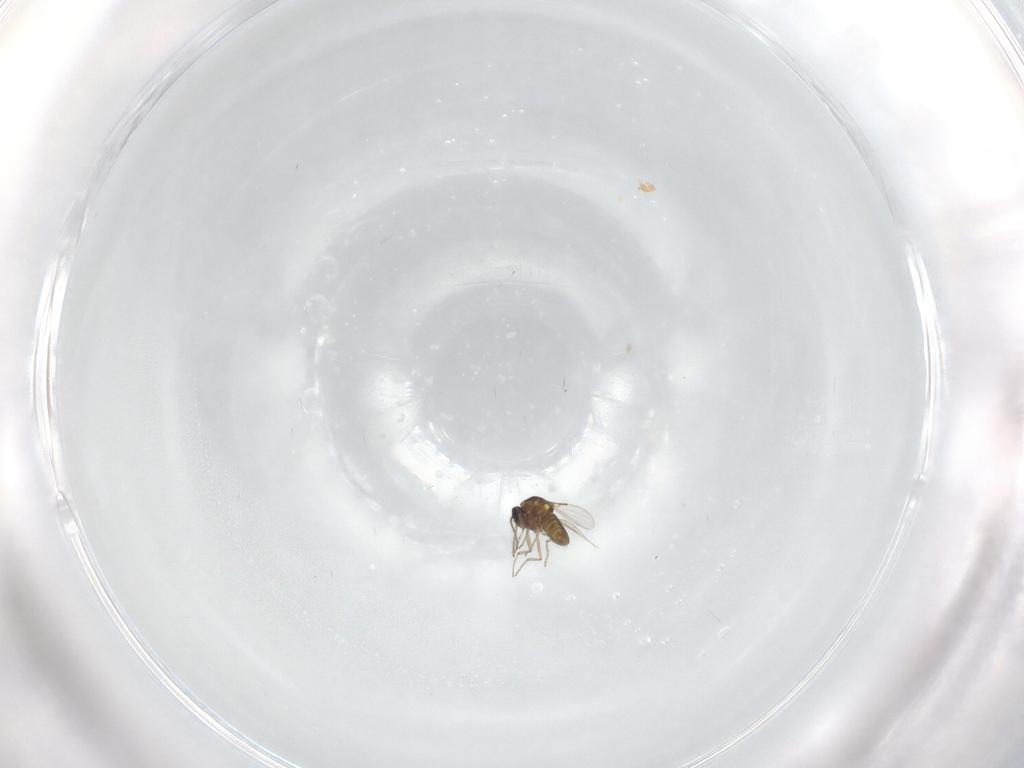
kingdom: Animalia
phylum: Arthropoda
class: Insecta
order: Diptera
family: Ceratopogonidae
